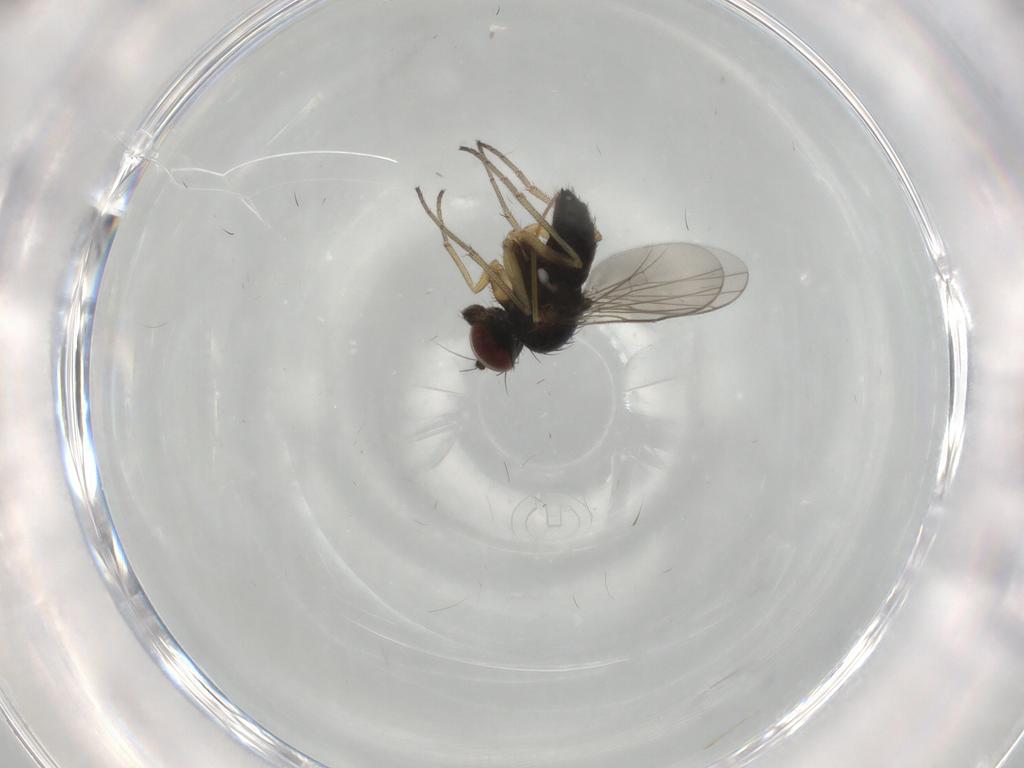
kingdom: Animalia
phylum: Arthropoda
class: Insecta
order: Diptera
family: Dolichopodidae
